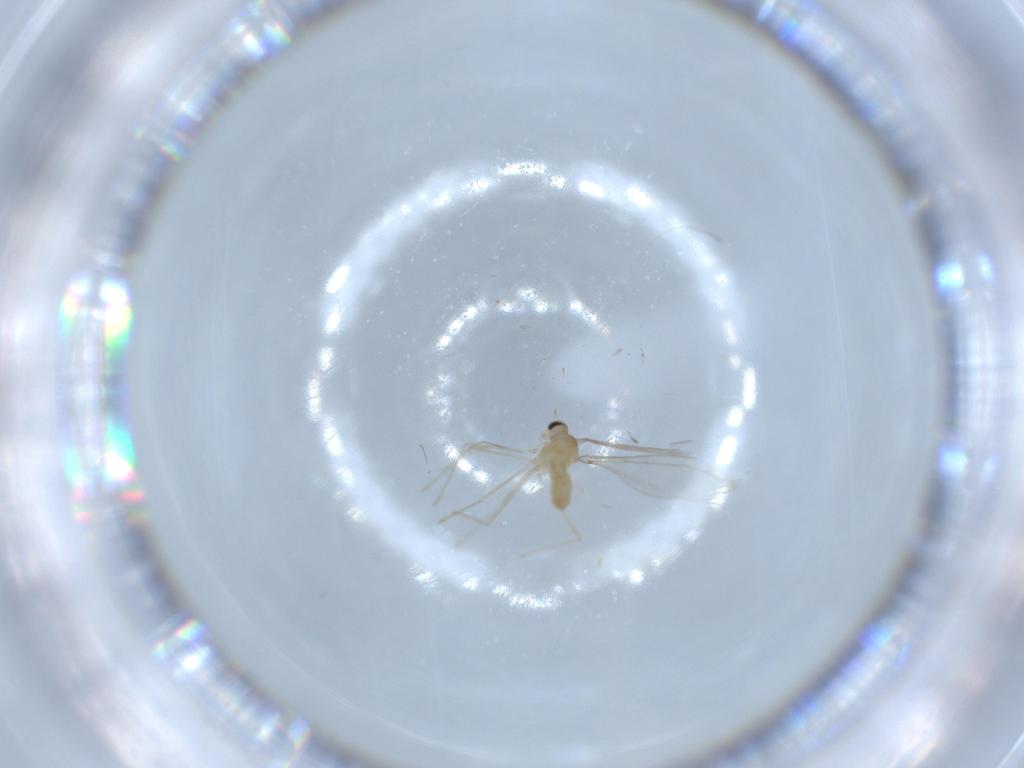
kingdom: Animalia
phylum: Arthropoda
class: Insecta
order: Diptera
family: Cecidomyiidae
